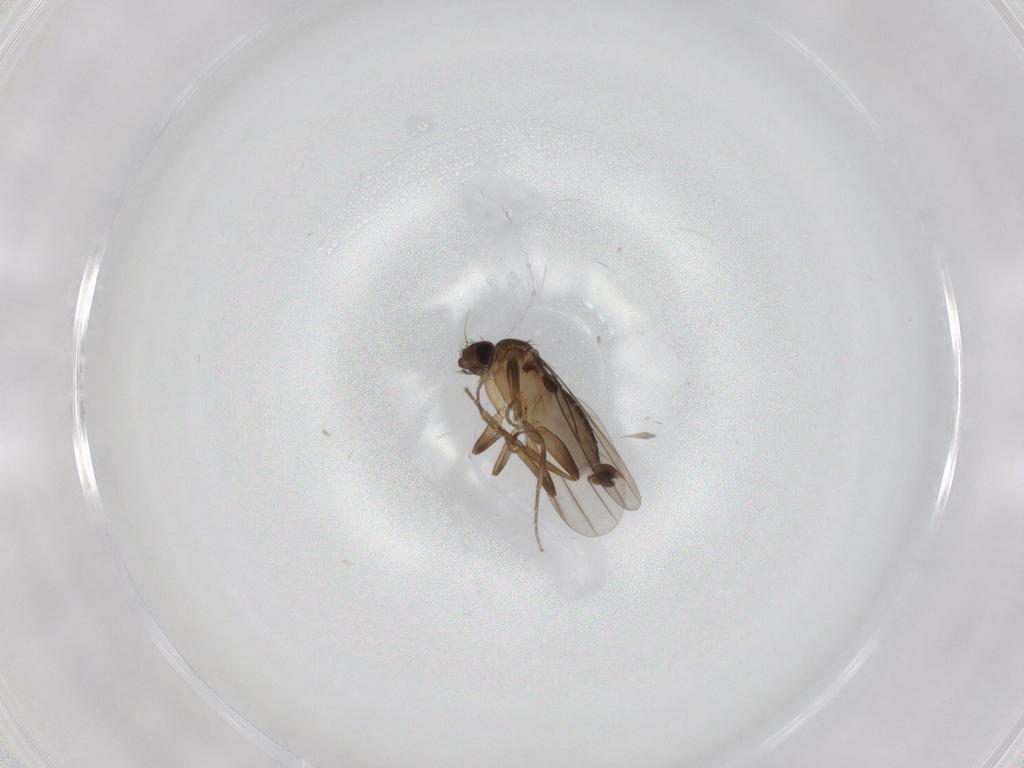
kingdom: Animalia
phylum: Arthropoda
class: Insecta
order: Diptera
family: Phoridae
